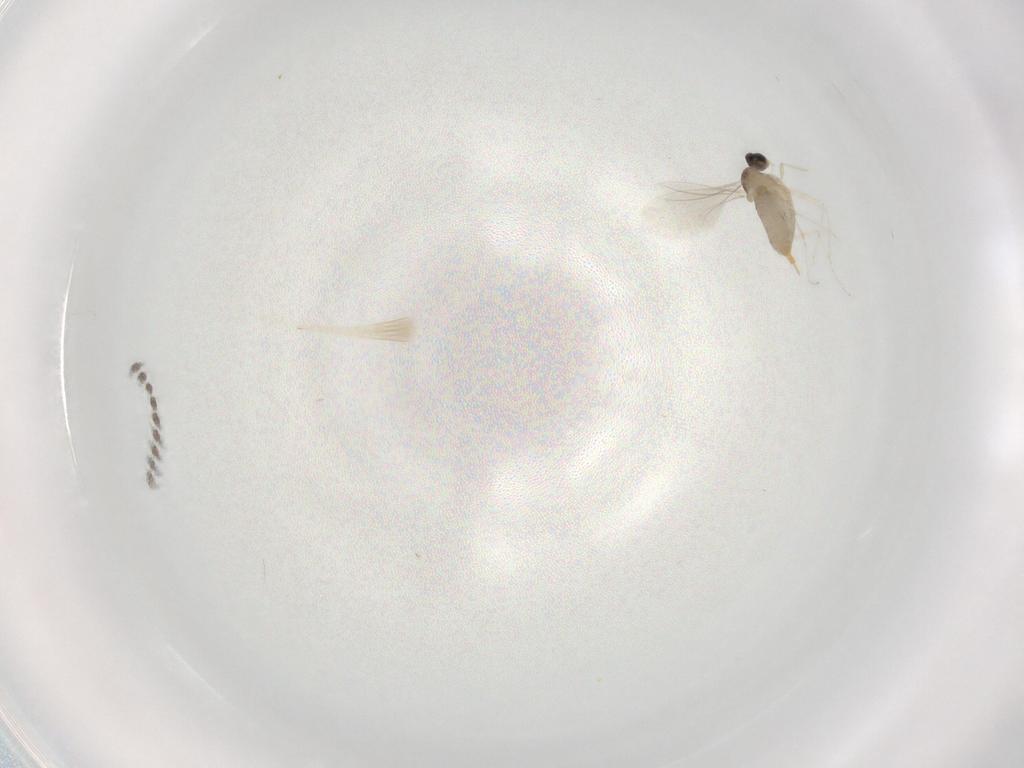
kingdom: Animalia
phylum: Arthropoda
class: Insecta
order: Diptera
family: Cecidomyiidae
